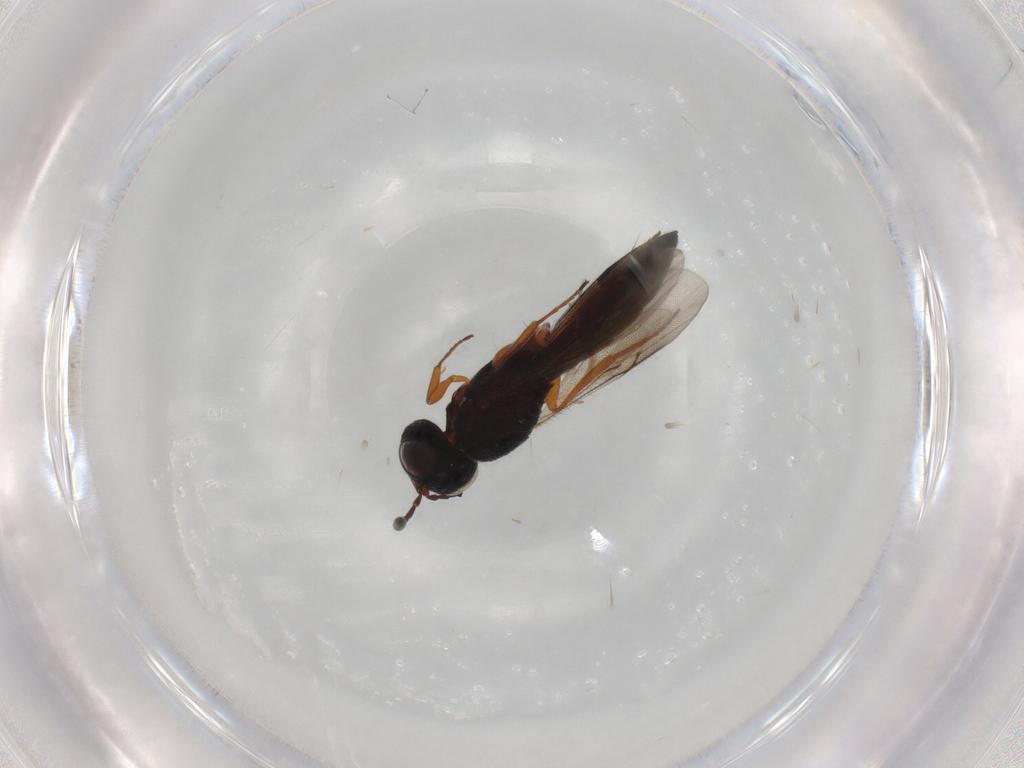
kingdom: Animalia
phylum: Arthropoda
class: Insecta
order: Hymenoptera
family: Scelionidae
